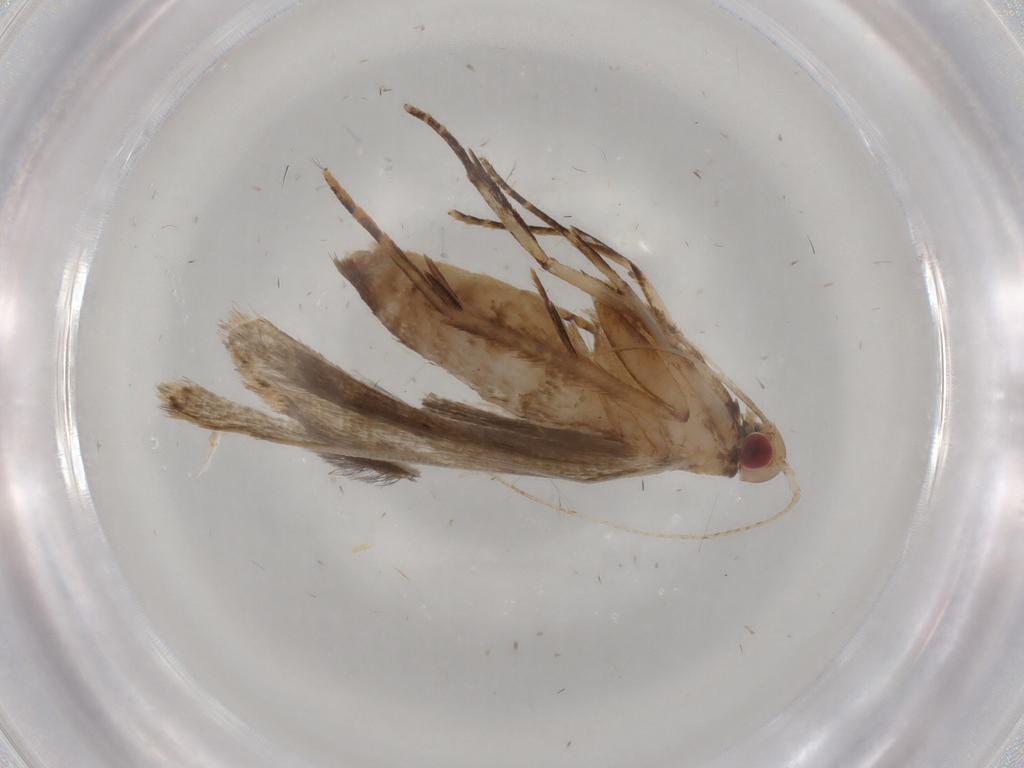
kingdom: Animalia
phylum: Arthropoda
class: Insecta
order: Lepidoptera
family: Gelechiidae
